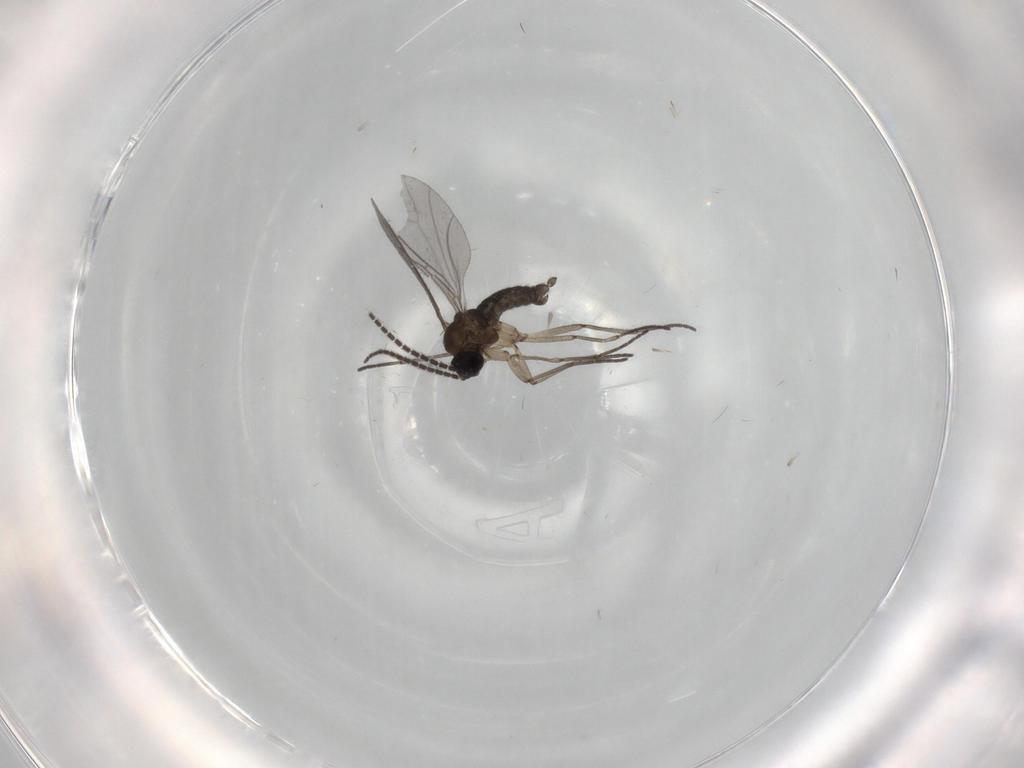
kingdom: Animalia
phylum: Arthropoda
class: Insecta
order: Diptera
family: Sciaridae
